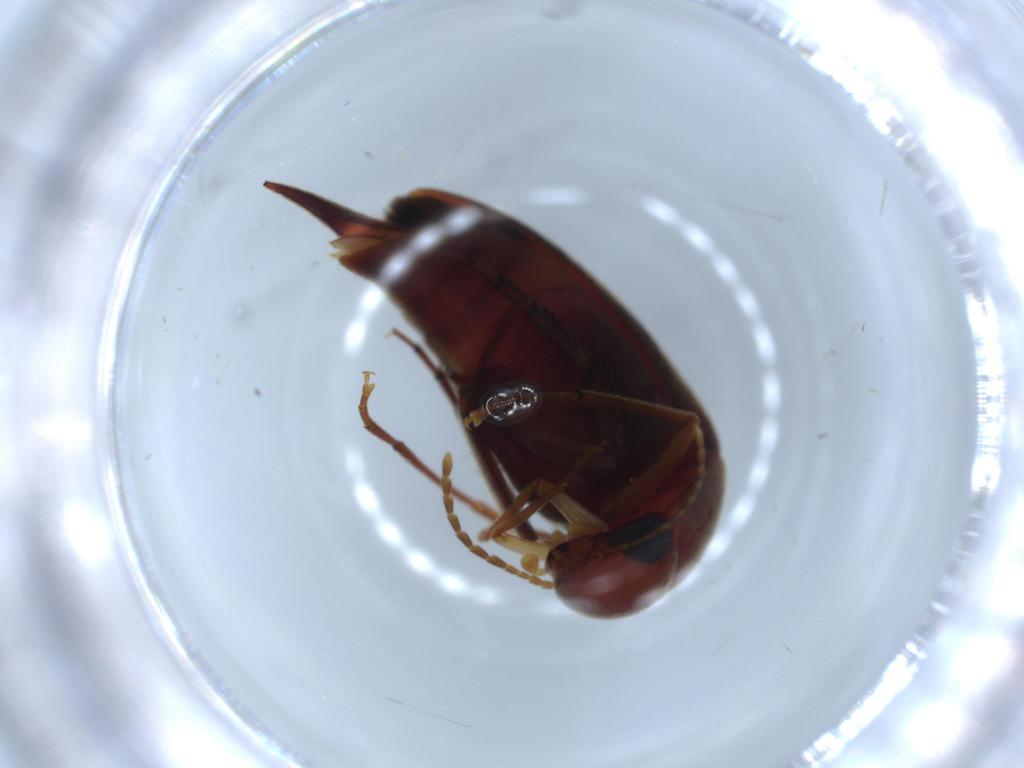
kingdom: Animalia
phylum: Arthropoda
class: Insecta
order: Coleoptera
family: Mordellidae
